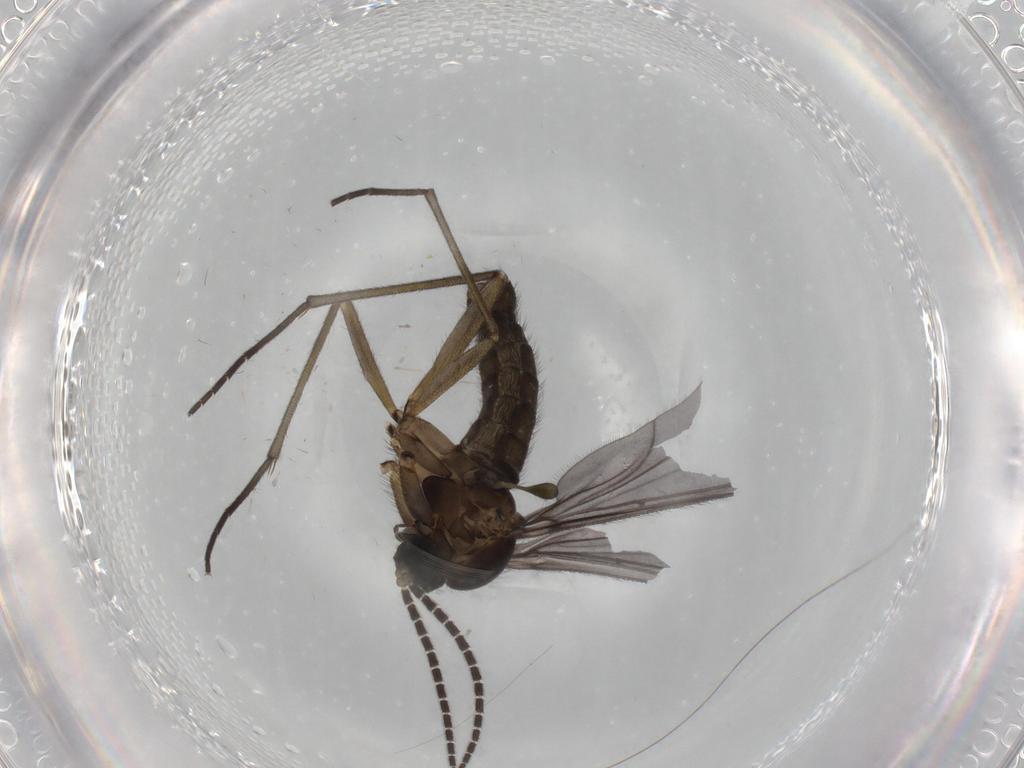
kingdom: Animalia
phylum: Arthropoda
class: Insecta
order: Diptera
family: Sciaridae
